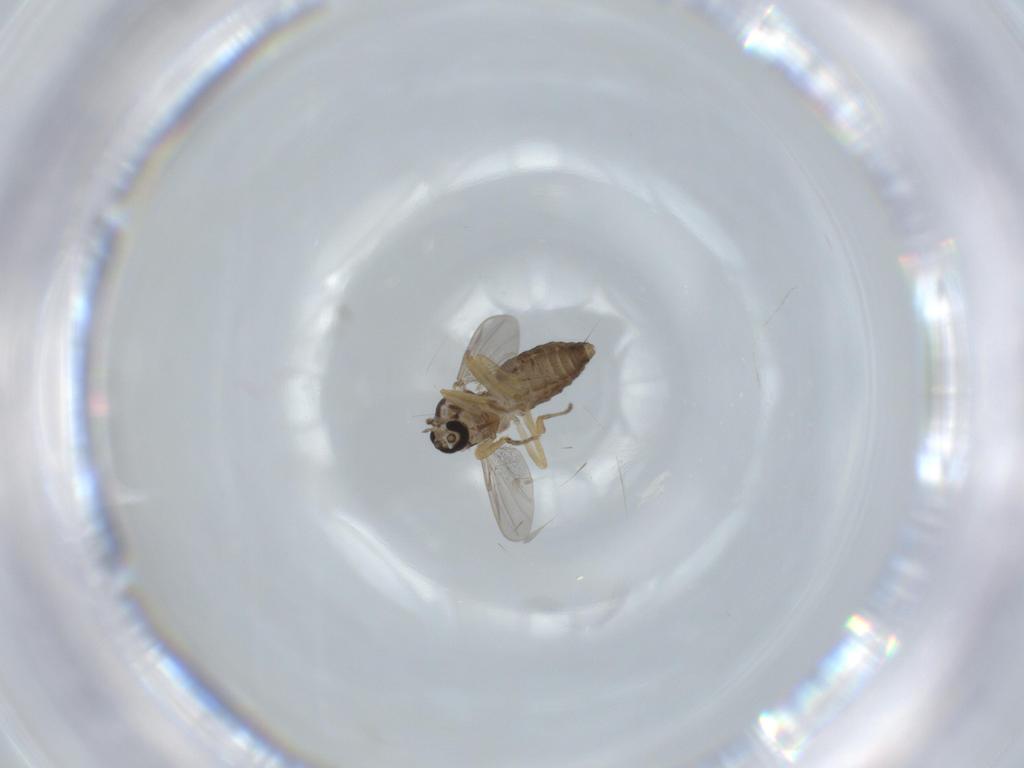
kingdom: Animalia
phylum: Arthropoda
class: Insecta
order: Diptera
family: Ceratopogonidae
